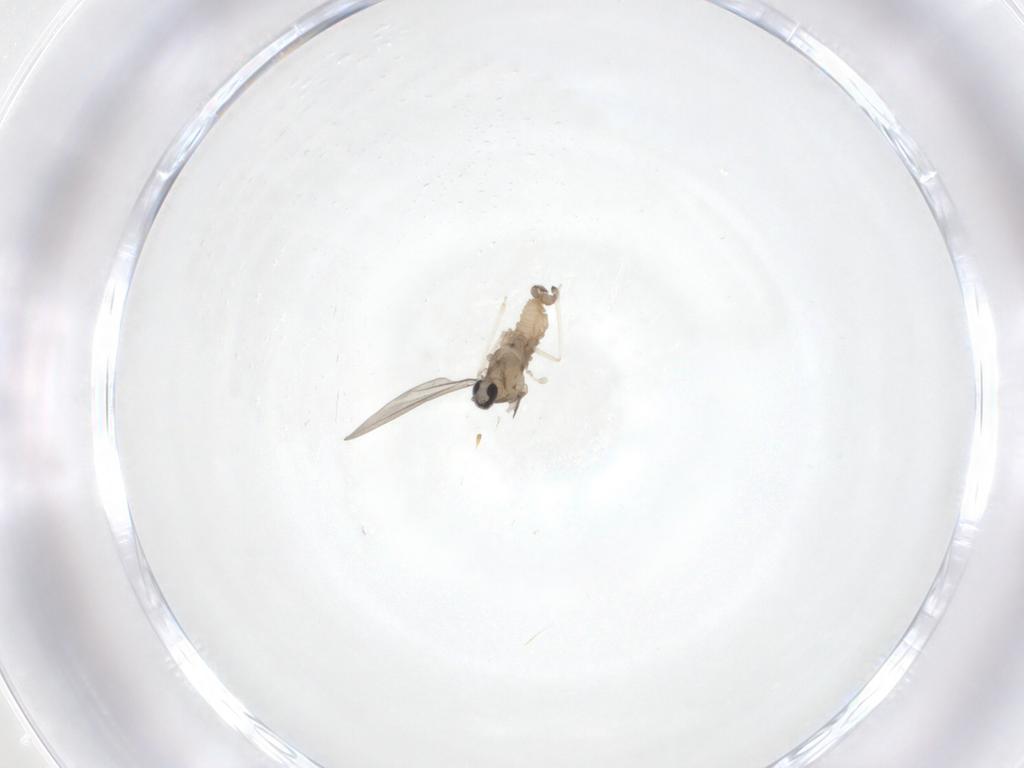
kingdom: Animalia
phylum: Arthropoda
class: Insecta
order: Diptera
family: Cecidomyiidae
